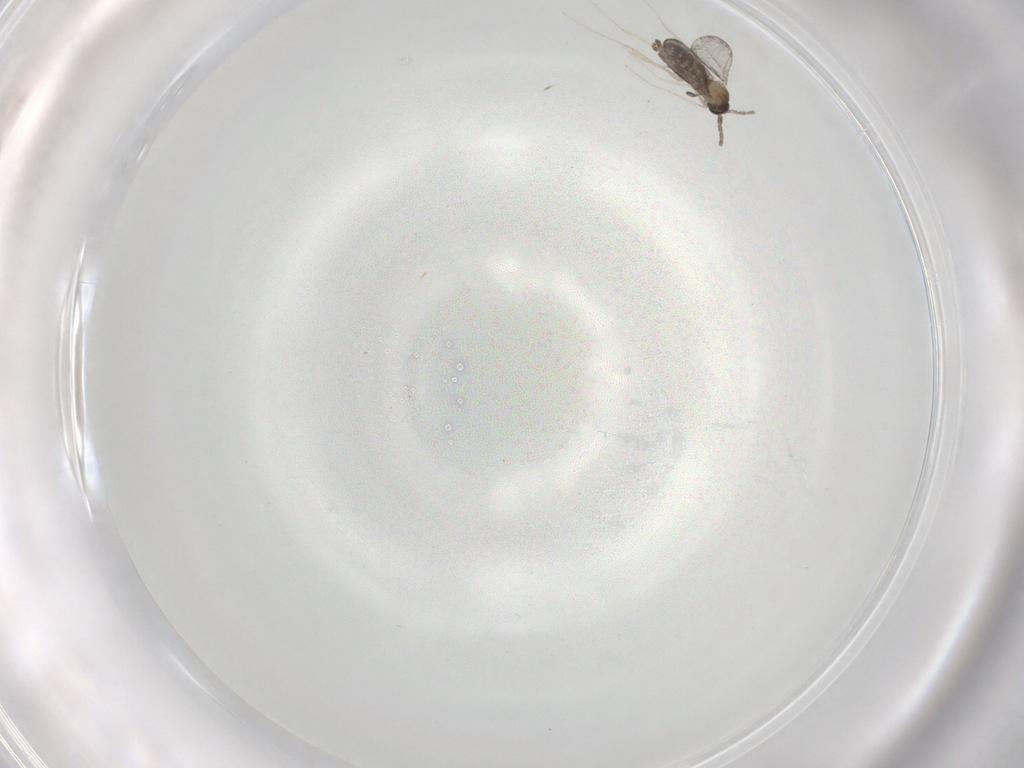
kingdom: Animalia
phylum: Arthropoda
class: Insecta
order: Diptera
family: Cecidomyiidae
